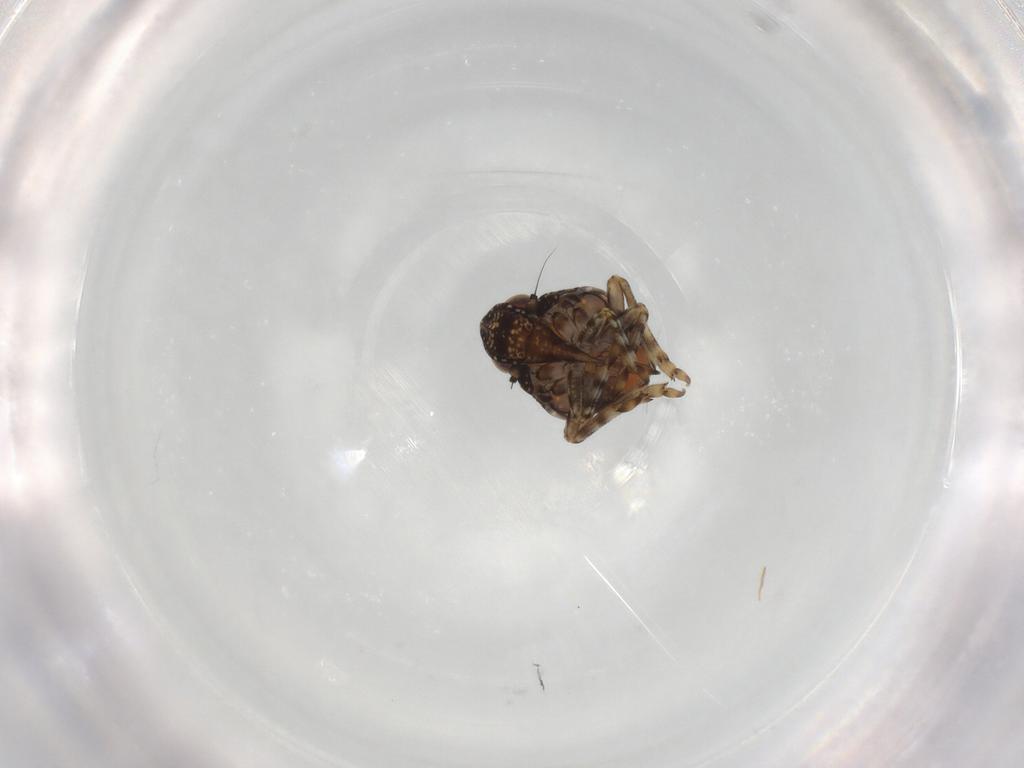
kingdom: Animalia
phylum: Arthropoda
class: Insecta
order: Hemiptera
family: Nogodinidae
